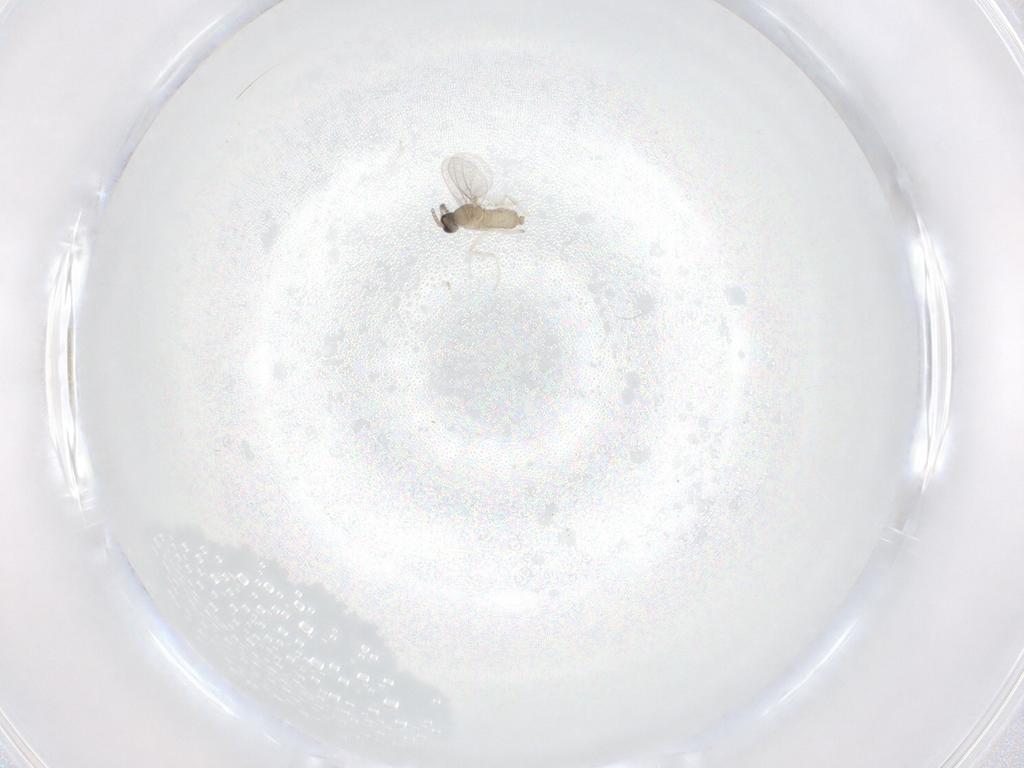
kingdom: Animalia
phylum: Arthropoda
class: Insecta
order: Diptera
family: Cecidomyiidae
